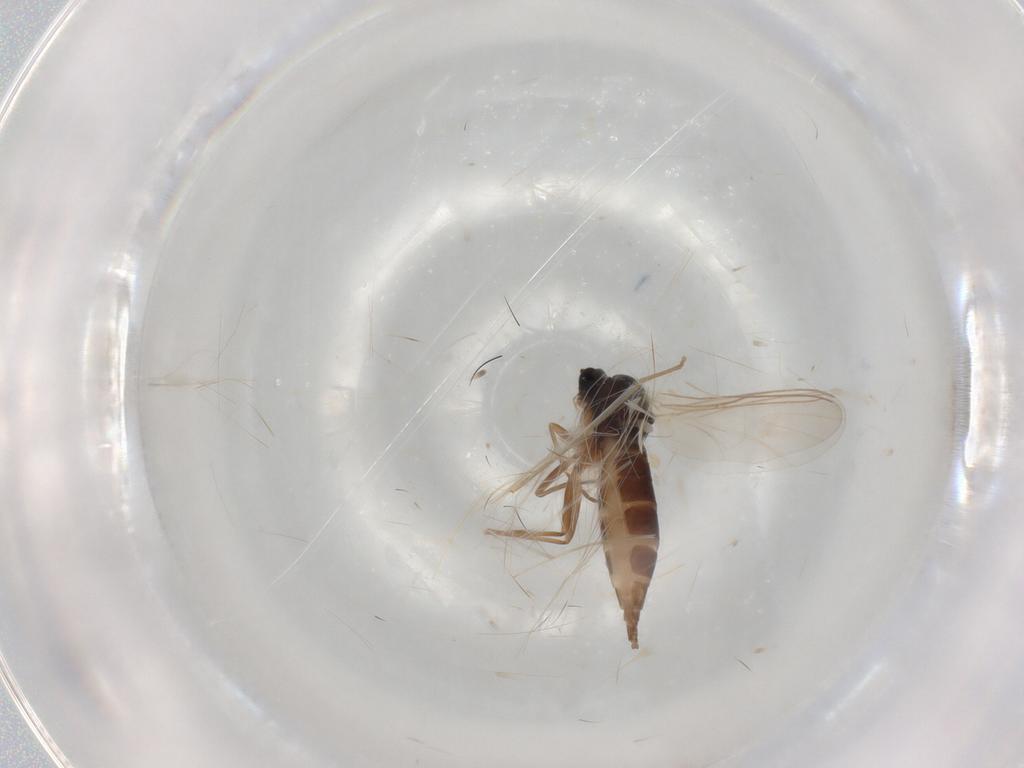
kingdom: Animalia
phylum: Arthropoda
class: Insecta
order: Diptera
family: Sciaridae
